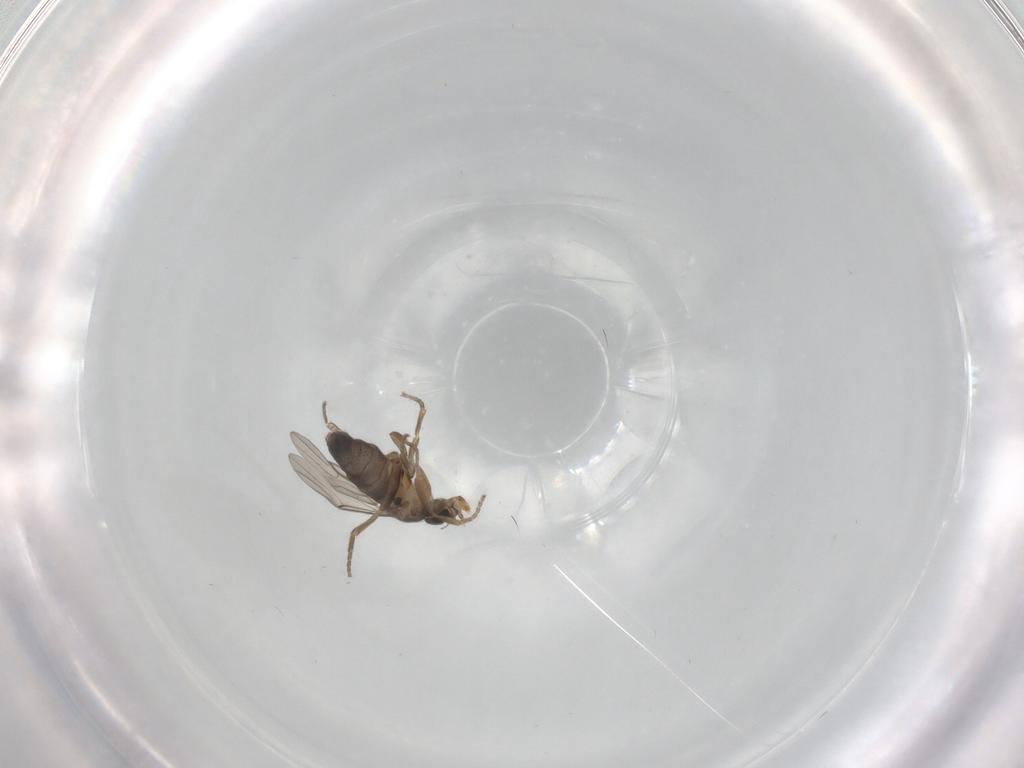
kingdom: Animalia
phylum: Arthropoda
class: Insecta
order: Diptera
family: Phoridae
